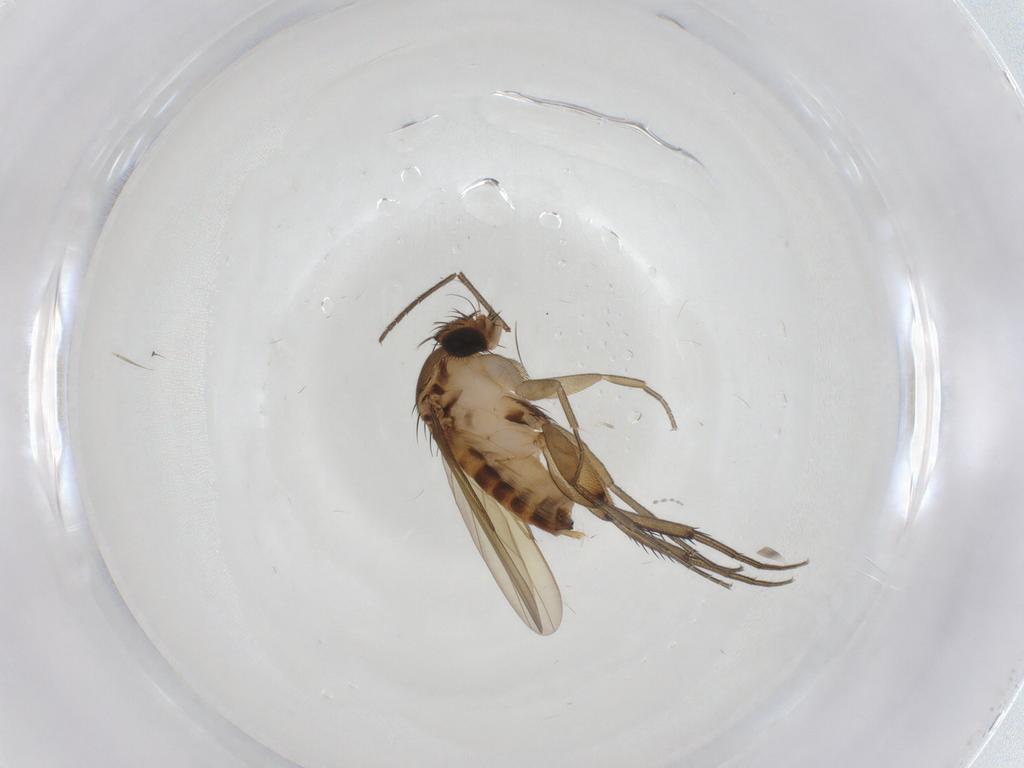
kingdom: Animalia
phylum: Arthropoda
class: Insecta
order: Diptera
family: Phoridae
